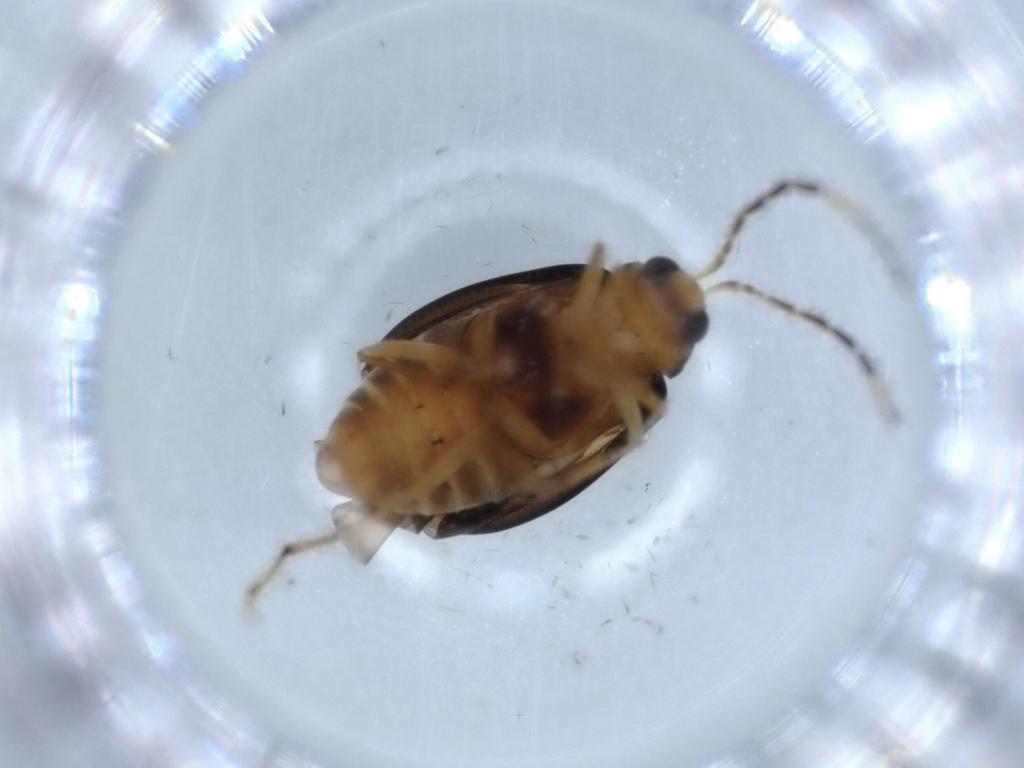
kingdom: Animalia
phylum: Arthropoda
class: Insecta
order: Coleoptera
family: Chrysomelidae
